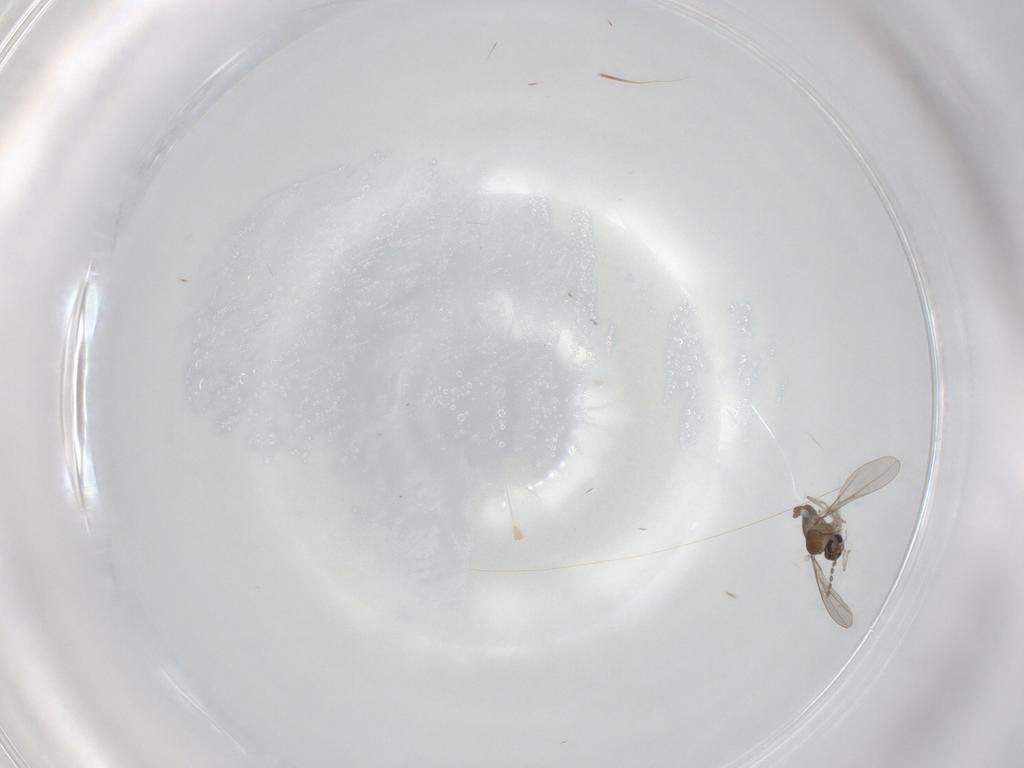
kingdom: Animalia
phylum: Arthropoda
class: Insecta
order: Diptera
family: Cecidomyiidae
